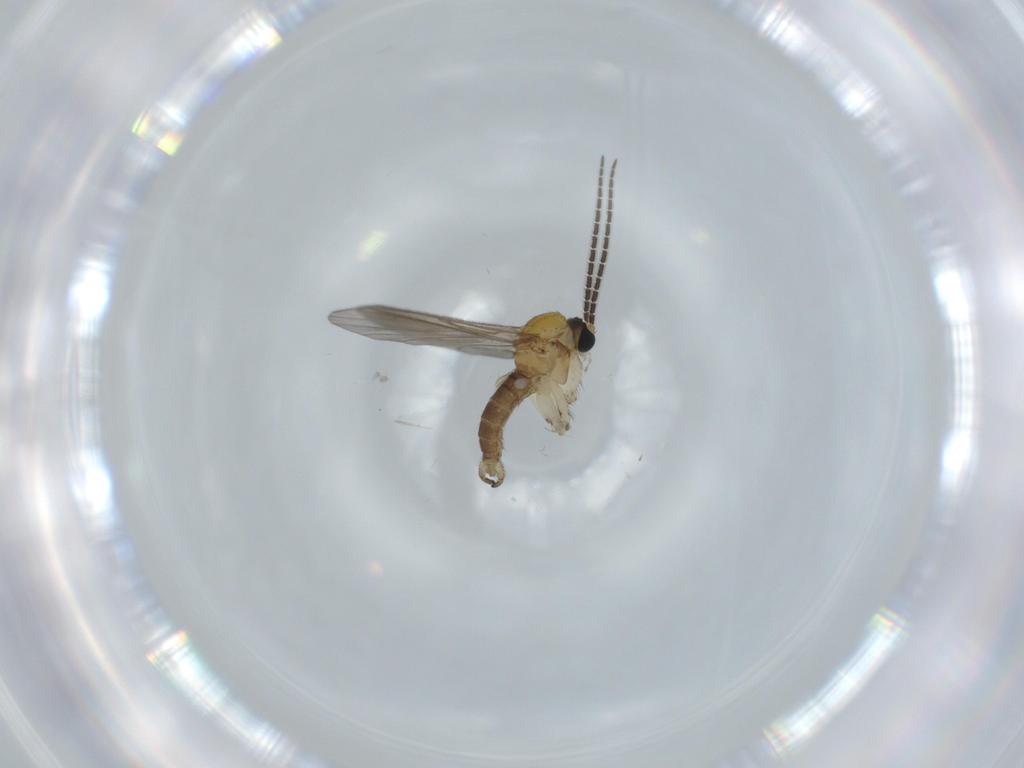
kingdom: Animalia
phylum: Arthropoda
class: Insecta
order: Diptera
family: Sciaridae
